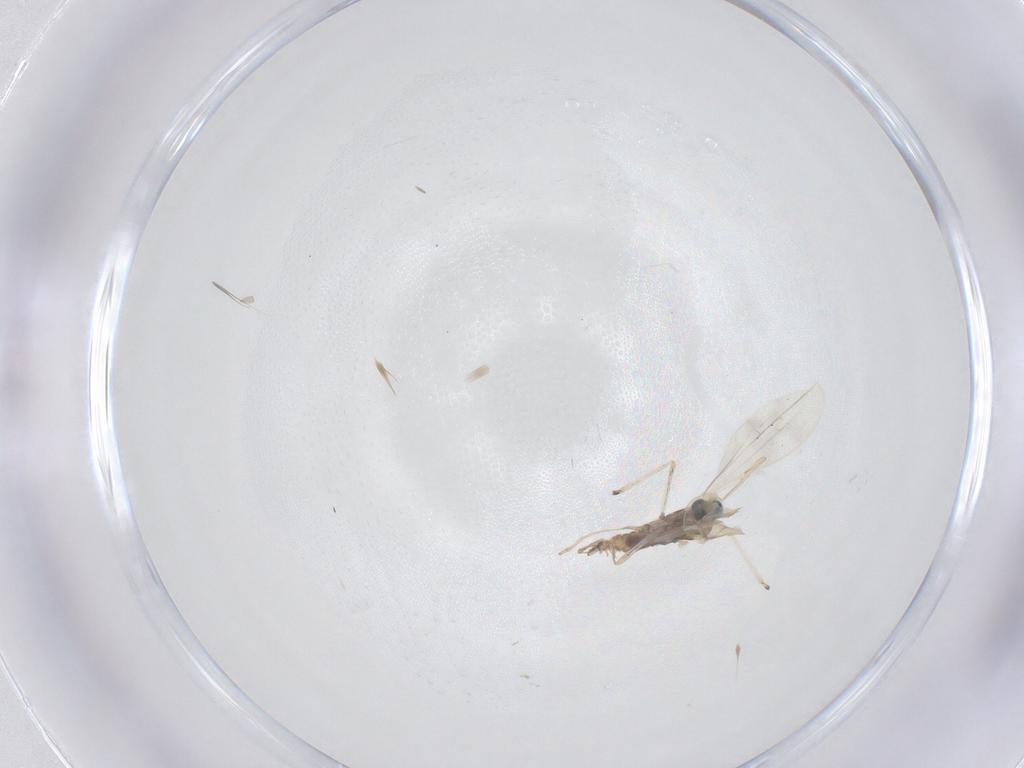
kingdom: Animalia
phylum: Arthropoda
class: Insecta
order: Diptera
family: Cecidomyiidae
